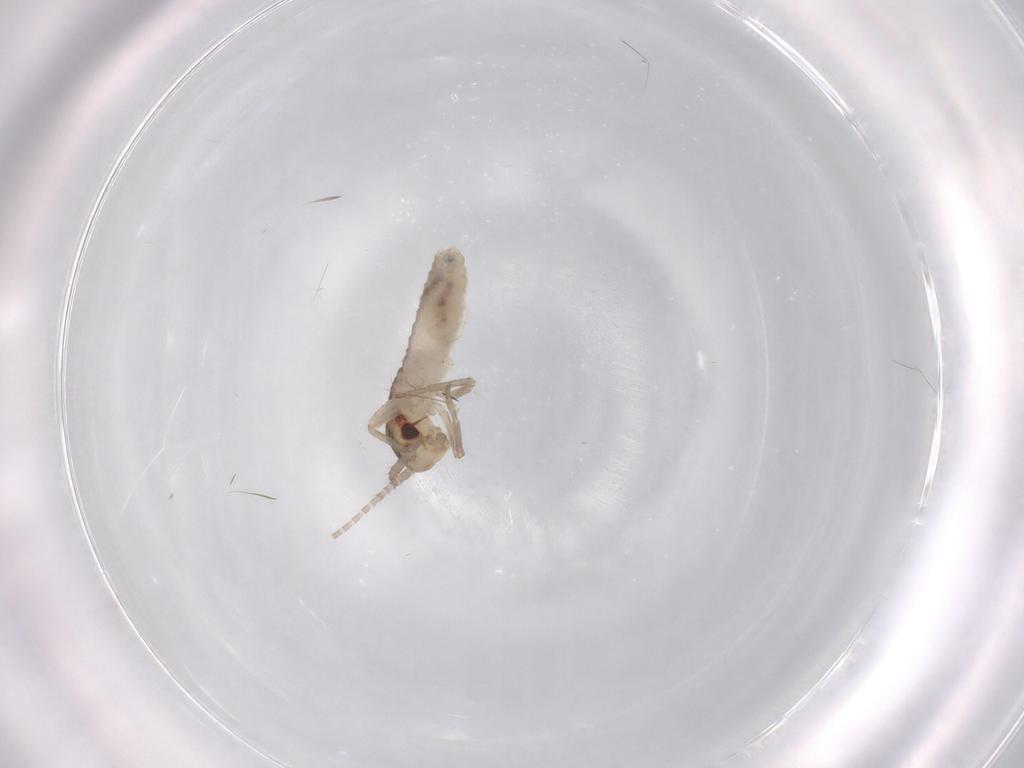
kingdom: Animalia
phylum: Arthropoda
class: Insecta
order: Orthoptera
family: Gryllidae
